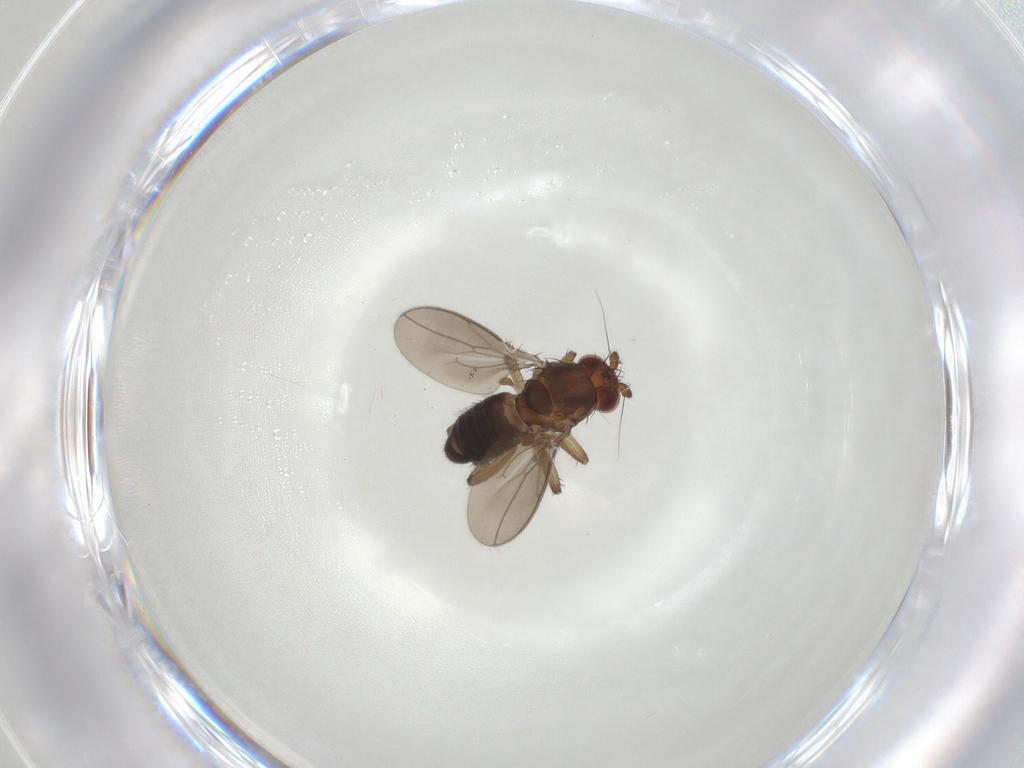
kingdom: Animalia
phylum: Arthropoda
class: Insecta
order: Diptera
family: Sphaeroceridae
